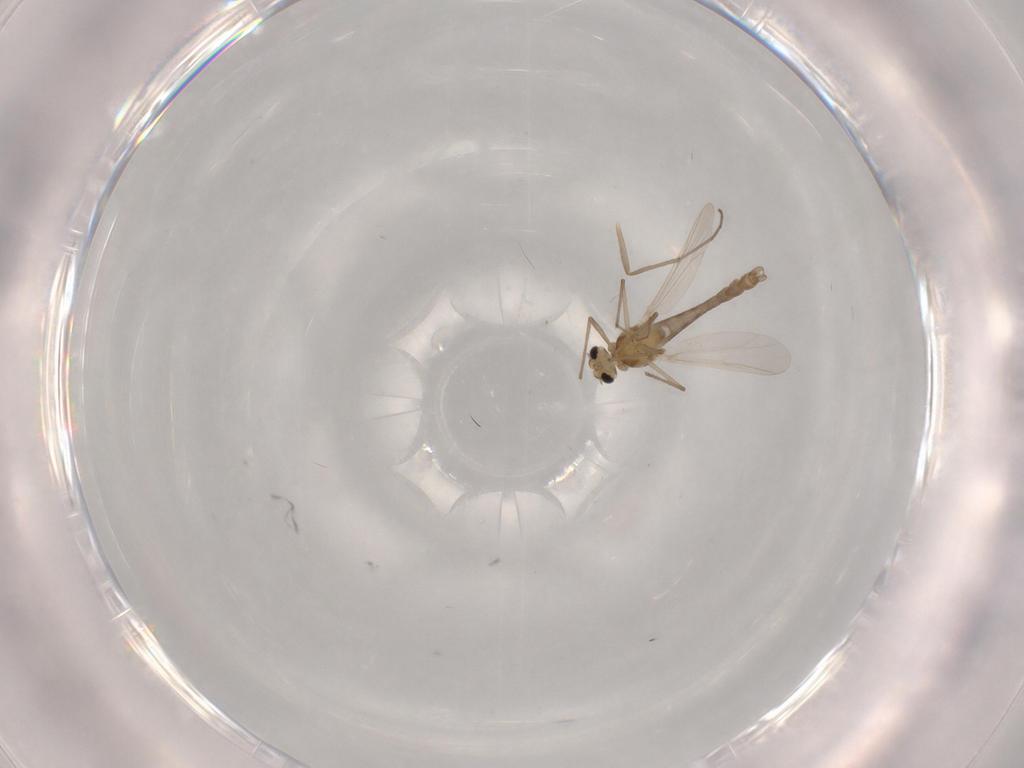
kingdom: Animalia
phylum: Arthropoda
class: Insecta
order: Diptera
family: Chironomidae
